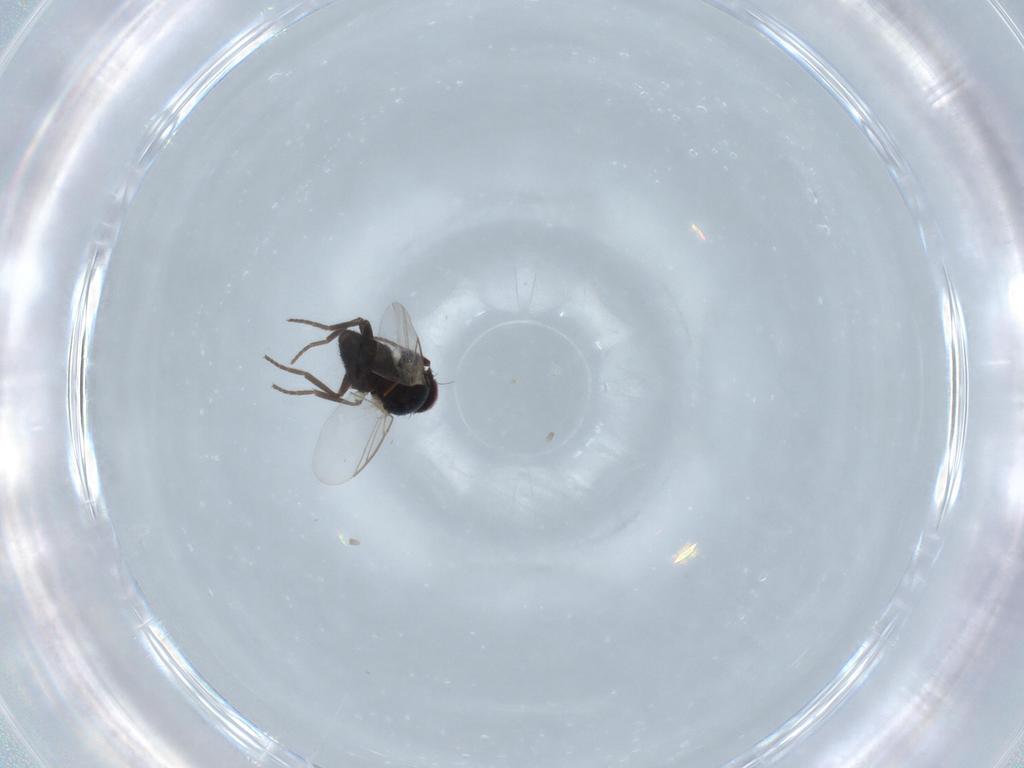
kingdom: Animalia
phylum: Arthropoda
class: Insecta
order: Diptera
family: Agromyzidae
